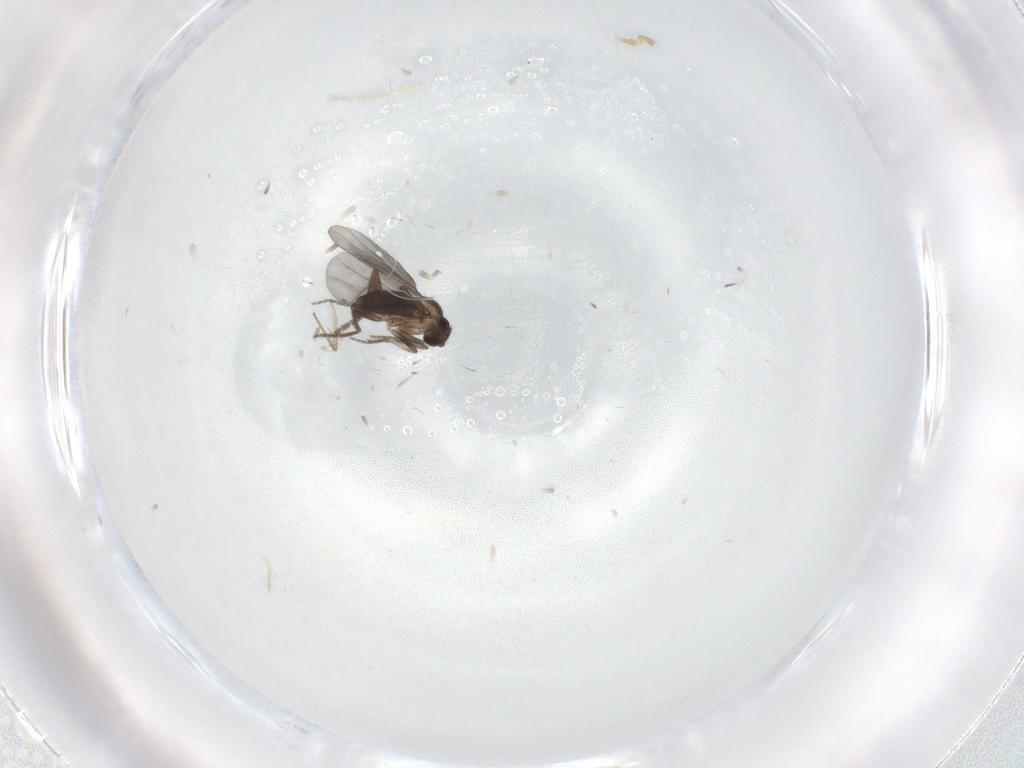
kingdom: Animalia
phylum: Arthropoda
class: Insecta
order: Diptera
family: Phoridae
